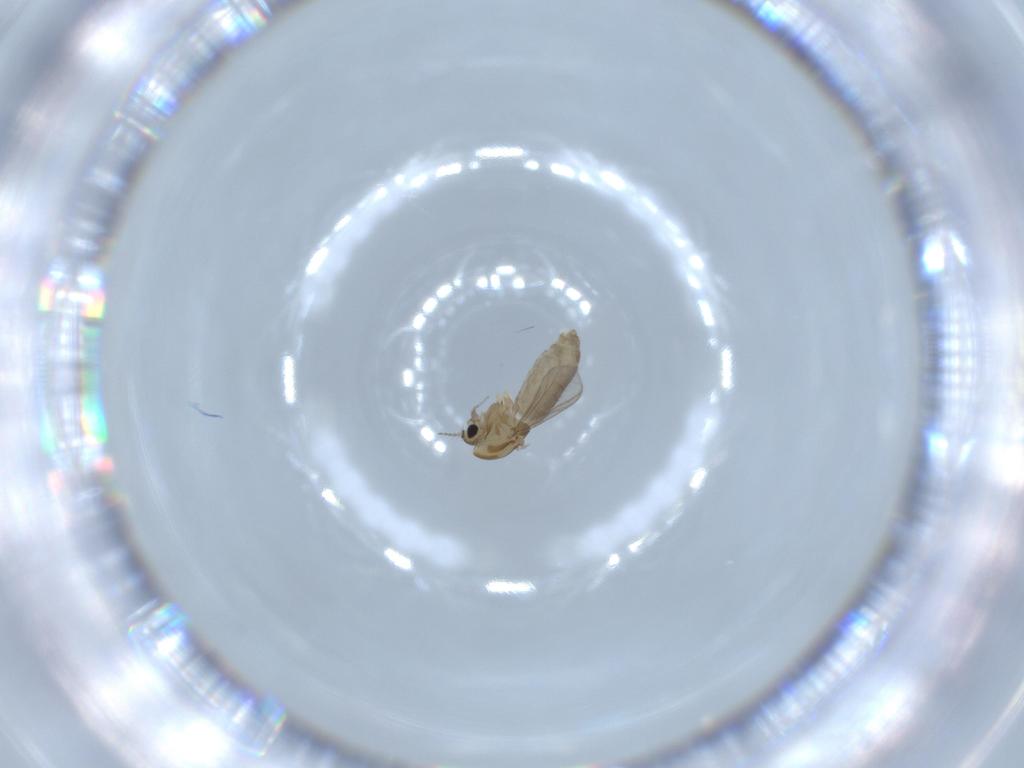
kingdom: Animalia
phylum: Arthropoda
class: Insecta
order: Diptera
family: Chironomidae
